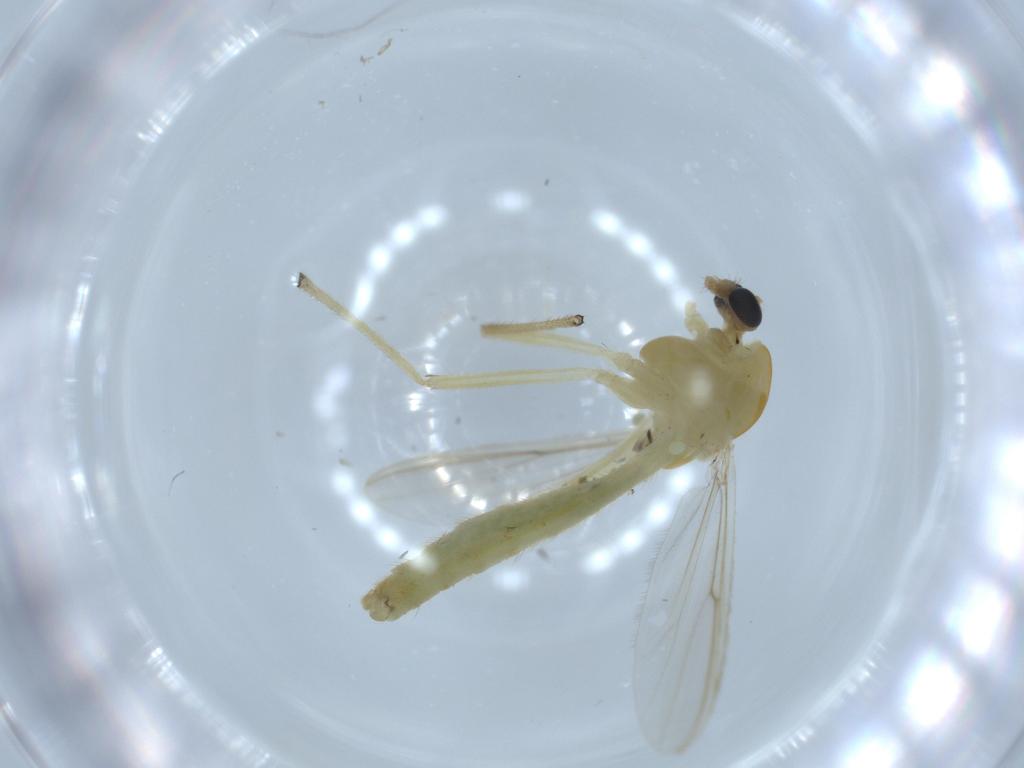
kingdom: Animalia
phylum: Arthropoda
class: Insecta
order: Diptera
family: Chironomidae
